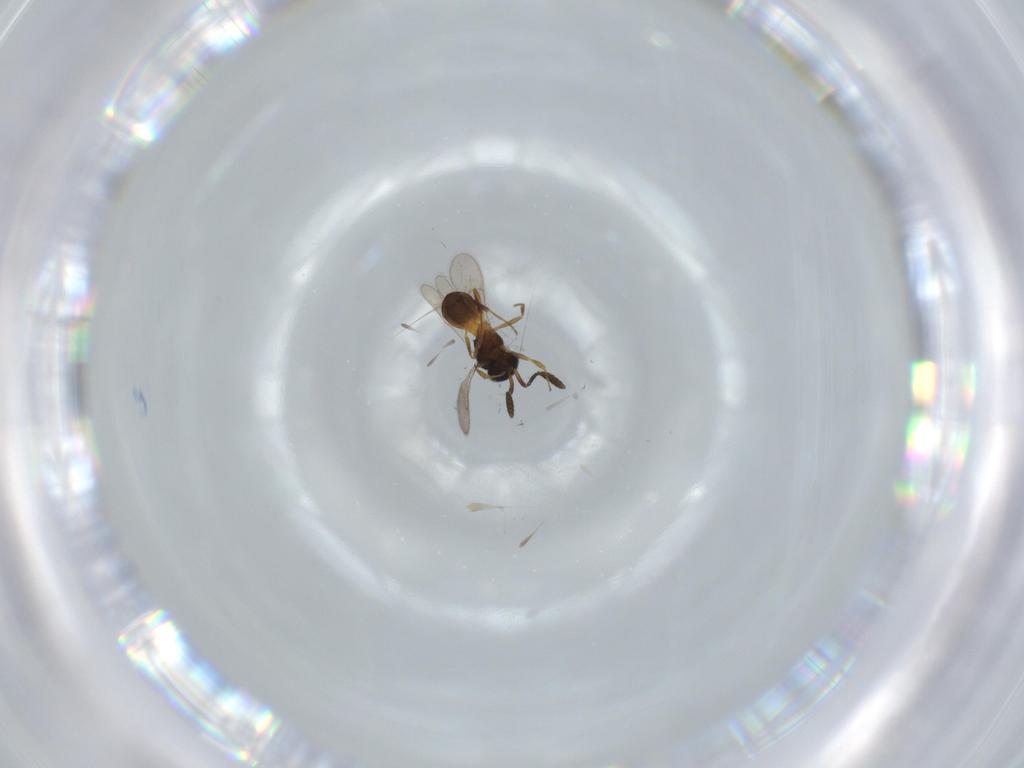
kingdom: Animalia
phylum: Arthropoda
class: Insecta
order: Hymenoptera
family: Scelionidae
